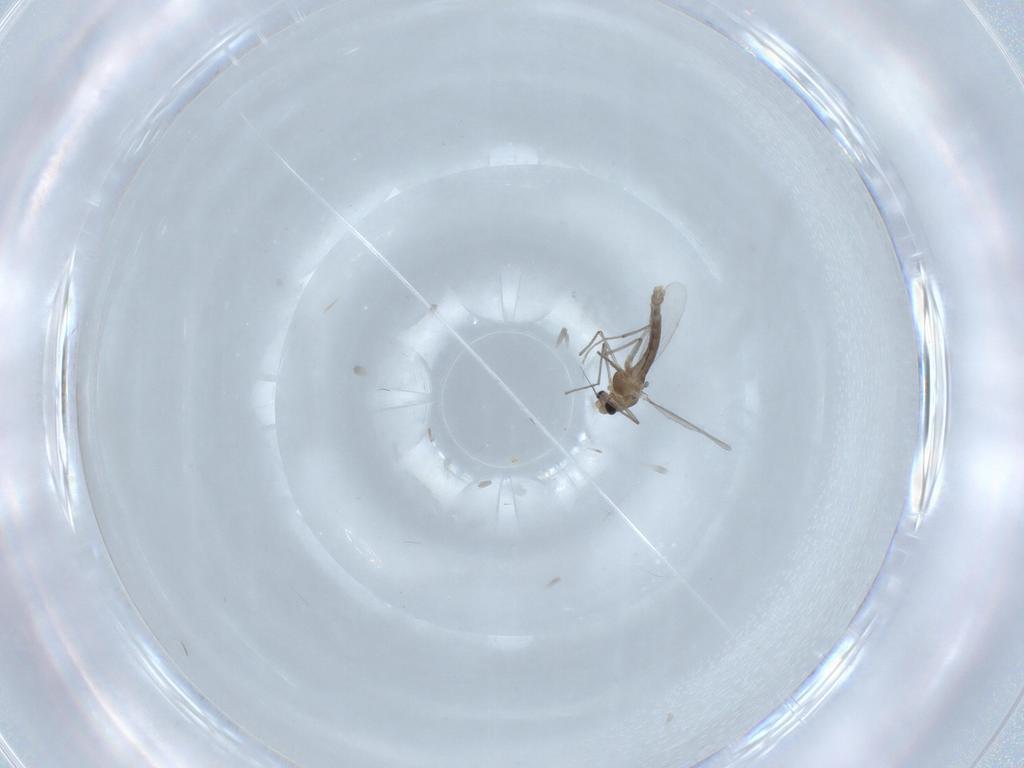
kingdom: Animalia
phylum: Arthropoda
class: Insecta
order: Diptera
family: Chironomidae
